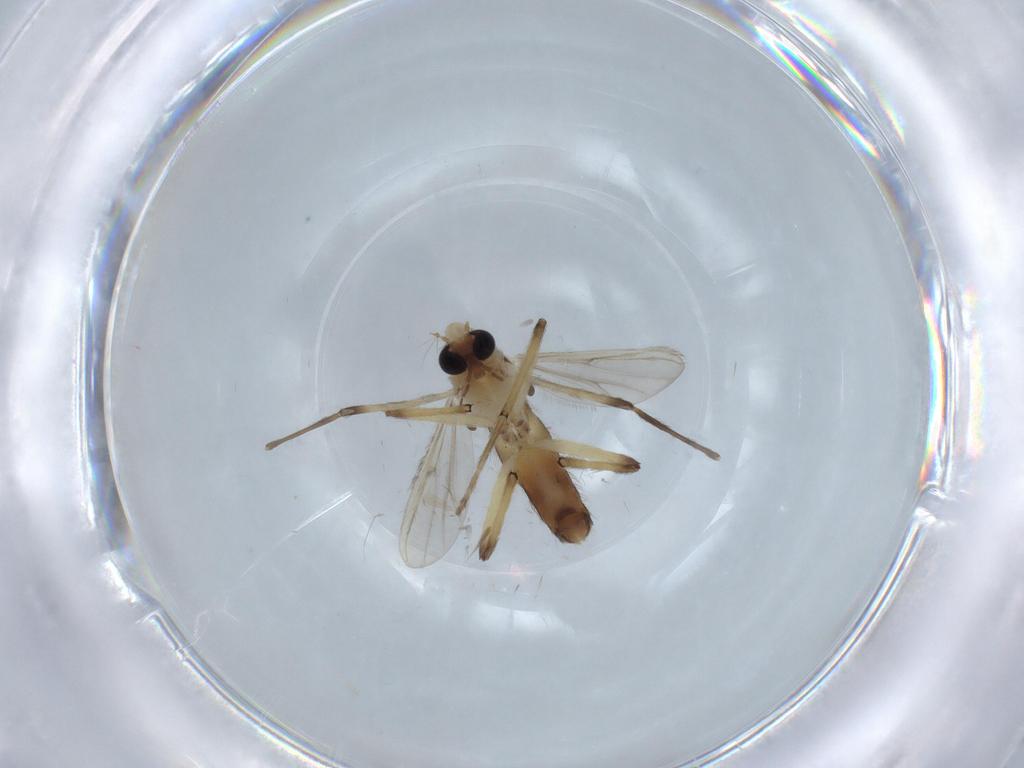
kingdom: Animalia
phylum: Arthropoda
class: Insecta
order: Diptera
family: Chironomidae
